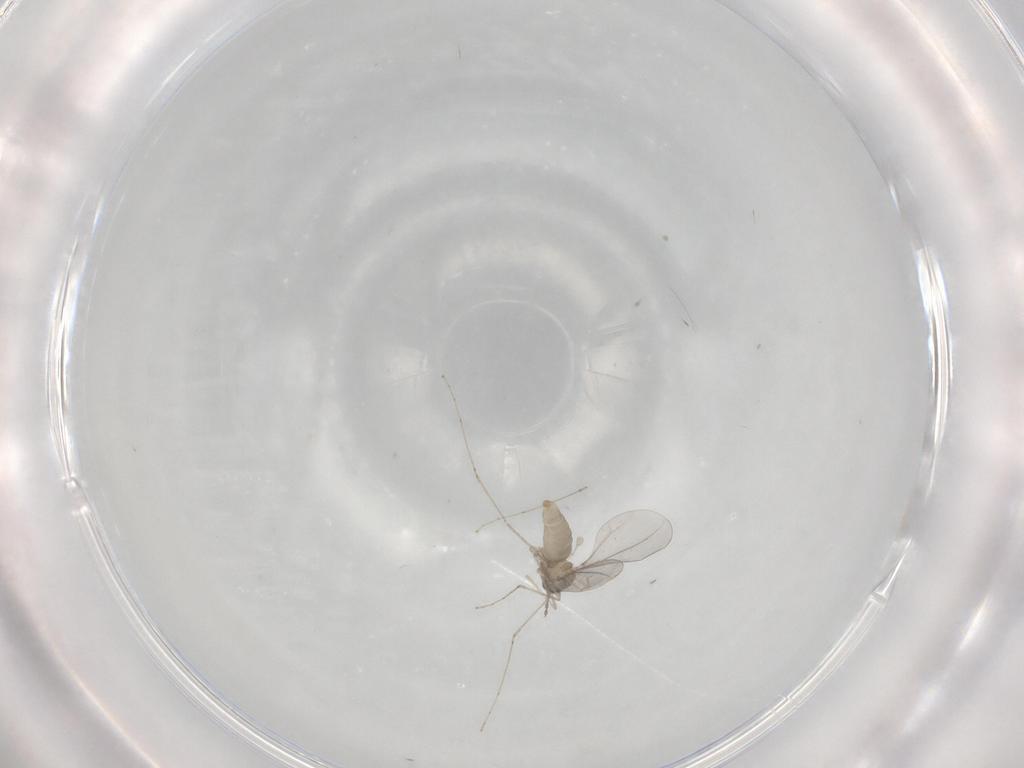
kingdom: Animalia
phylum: Arthropoda
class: Insecta
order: Diptera
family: Cecidomyiidae
